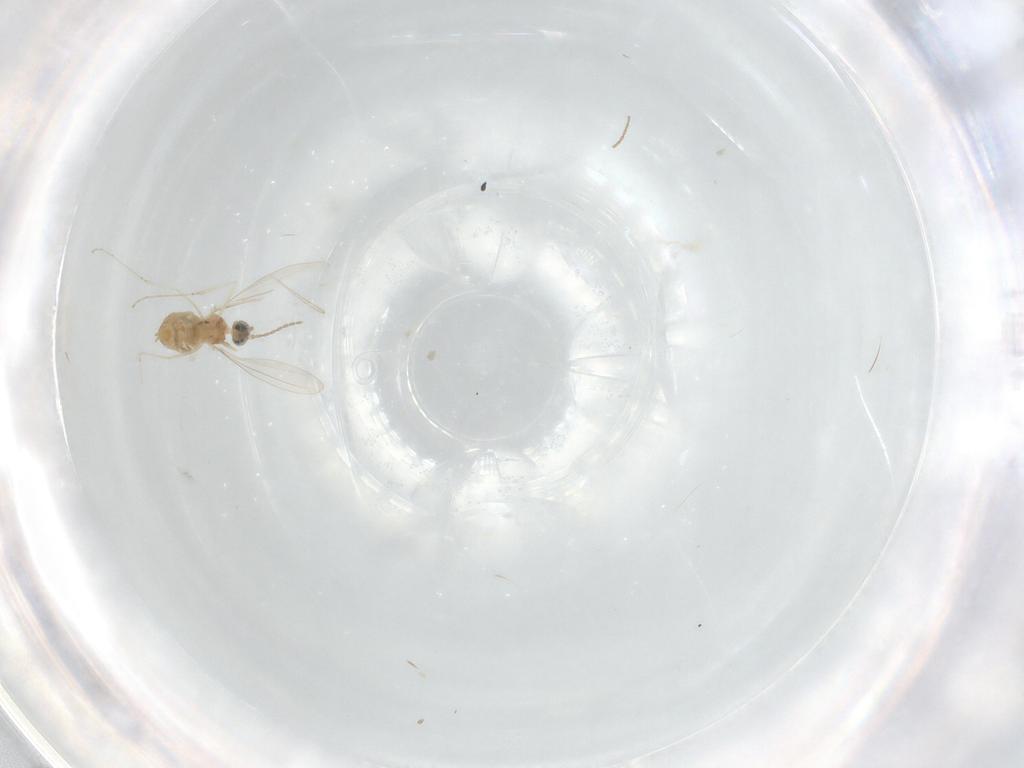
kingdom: Animalia
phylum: Arthropoda
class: Insecta
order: Diptera
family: Cecidomyiidae
